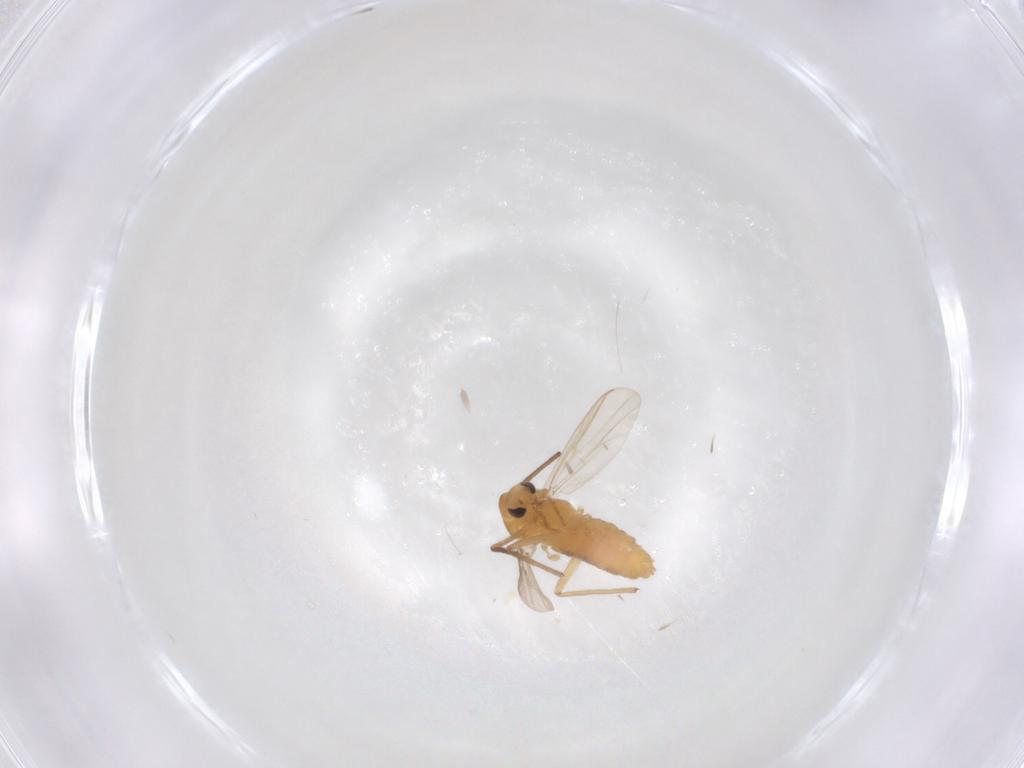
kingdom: Animalia
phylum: Arthropoda
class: Insecta
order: Diptera
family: Cecidomyiidae
